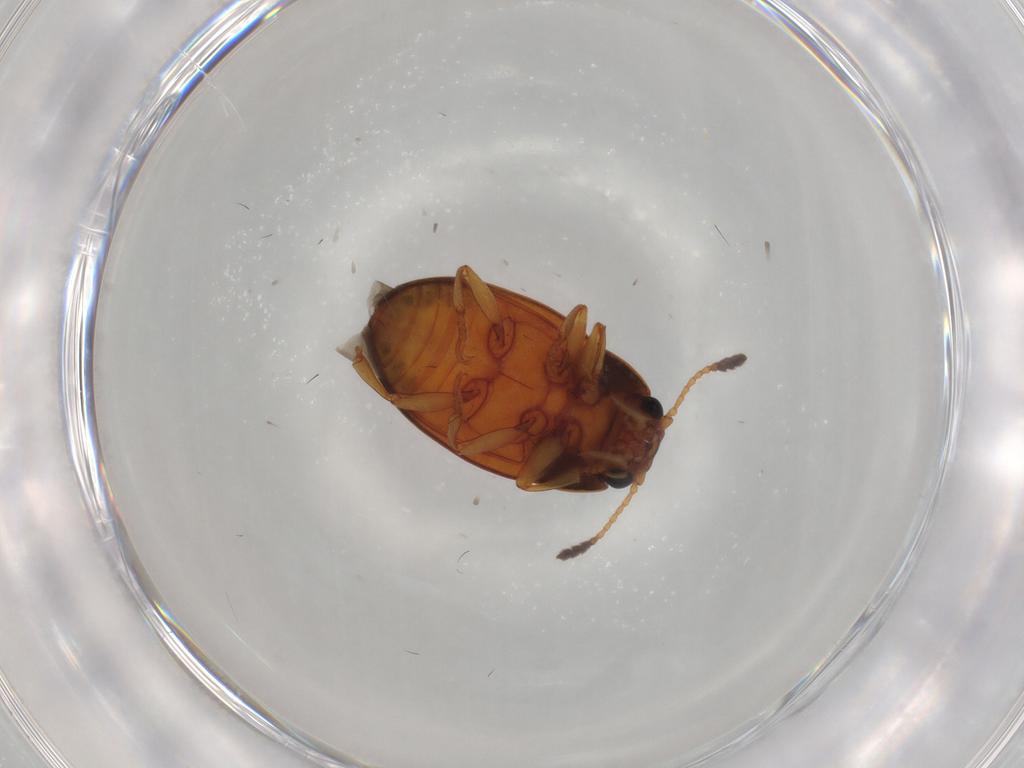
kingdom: Animalia
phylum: Arthropoda
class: Insecta
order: Coleoptera
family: Erotylidae
